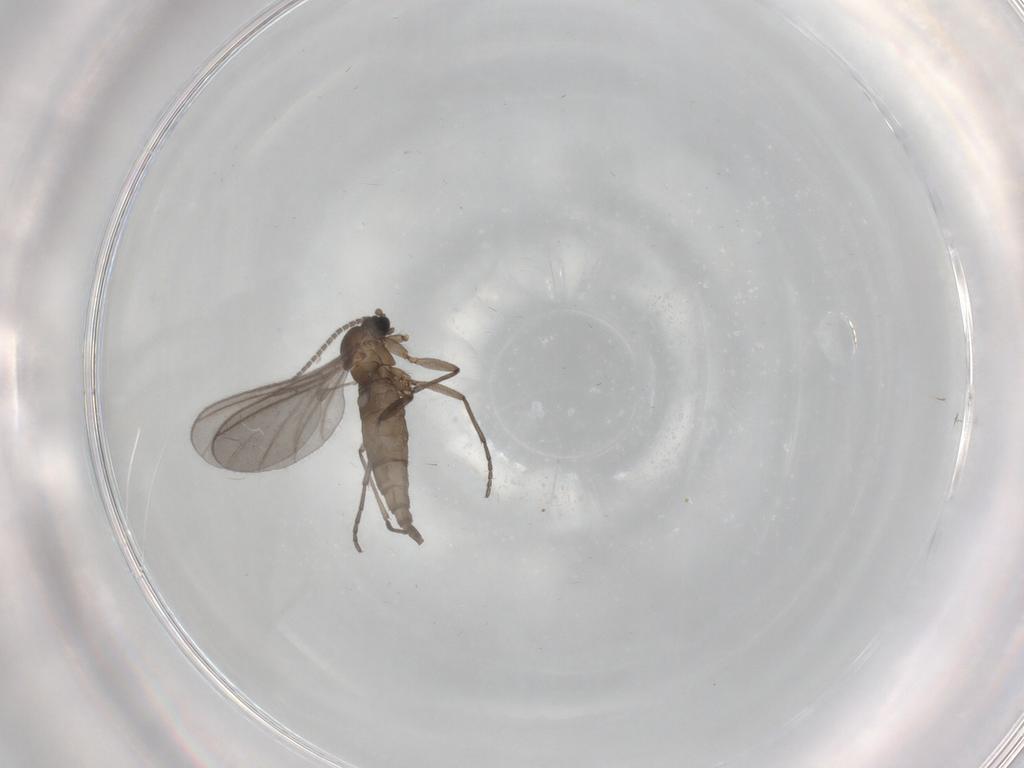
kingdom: Animalia
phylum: Arthropoda
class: Insecta
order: Diptera
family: Sciaridae
